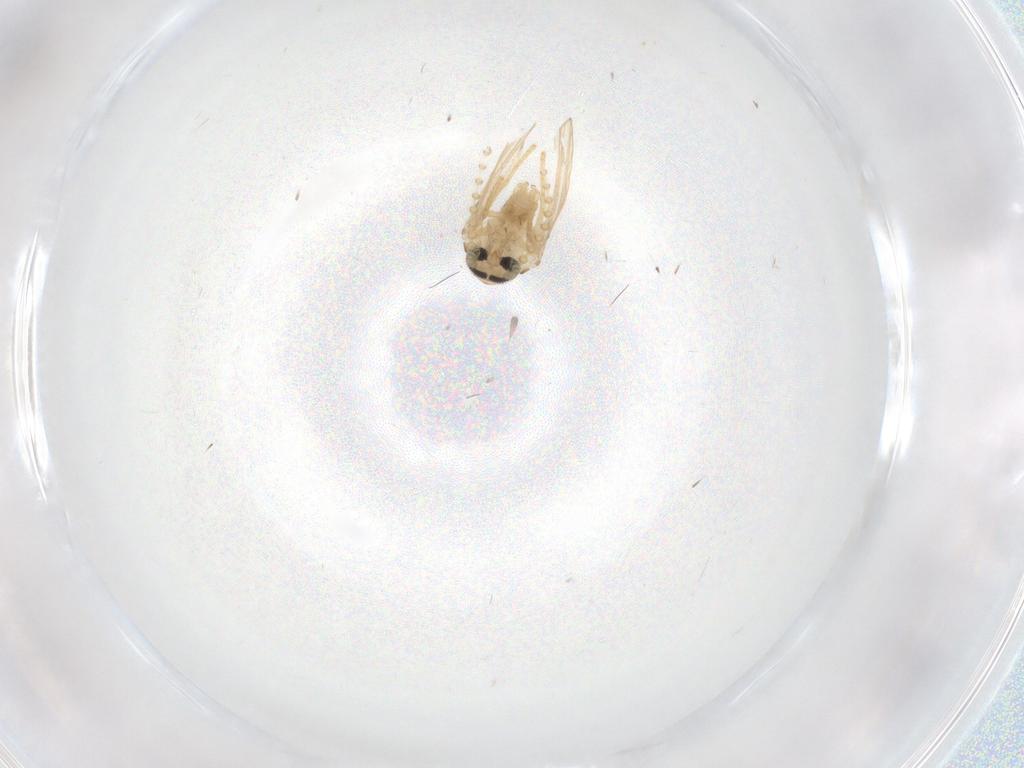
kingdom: Animalia
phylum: Arthropoda
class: Insecta
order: Diptera
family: Psychodidae
